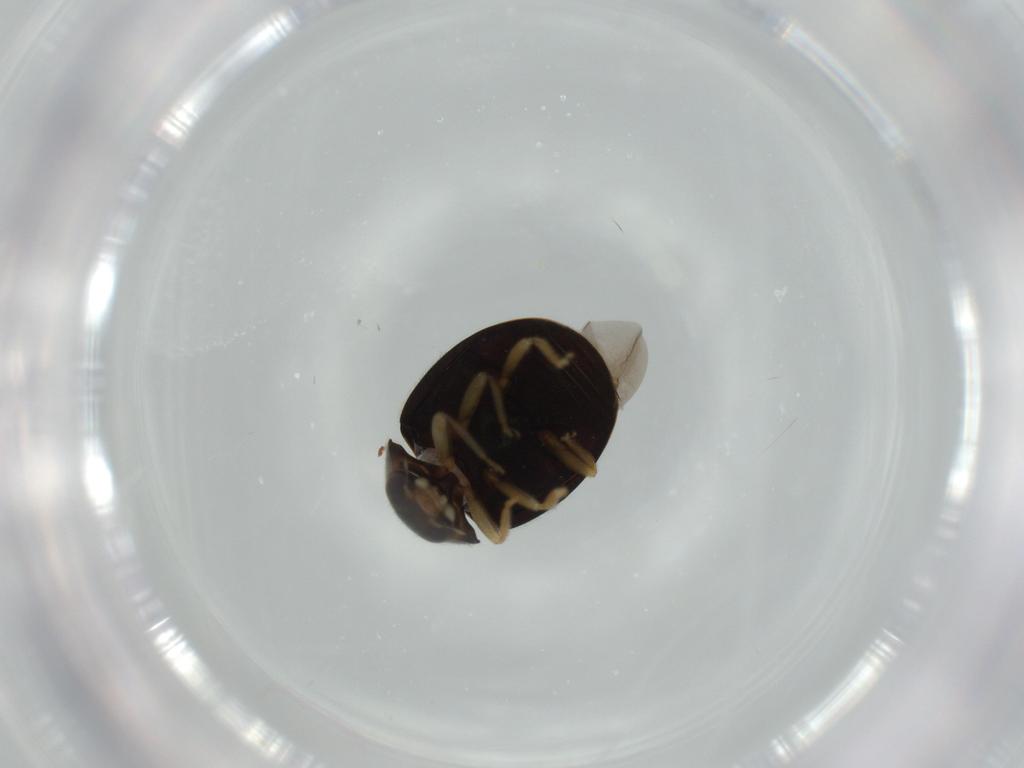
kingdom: Animalia
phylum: Arthropoda
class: Insecta
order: Coleoptera
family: Coccinellidae
